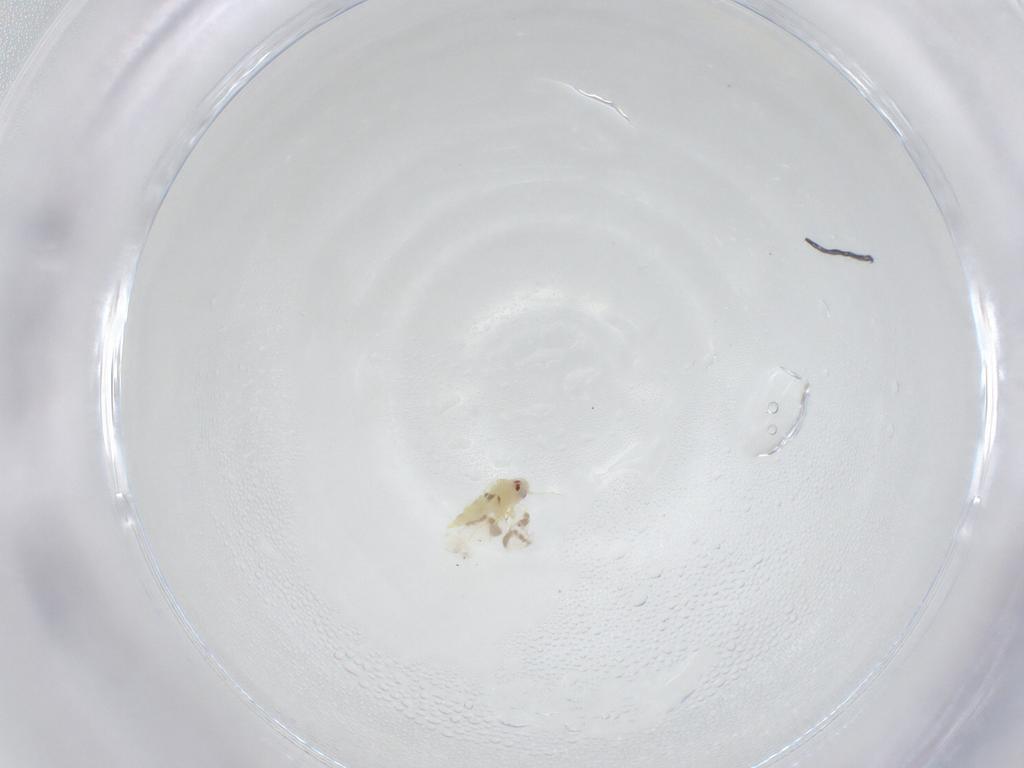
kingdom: Animalia
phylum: Arthropoda
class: Insecta
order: Hemiptera
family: Aleyrodidae
